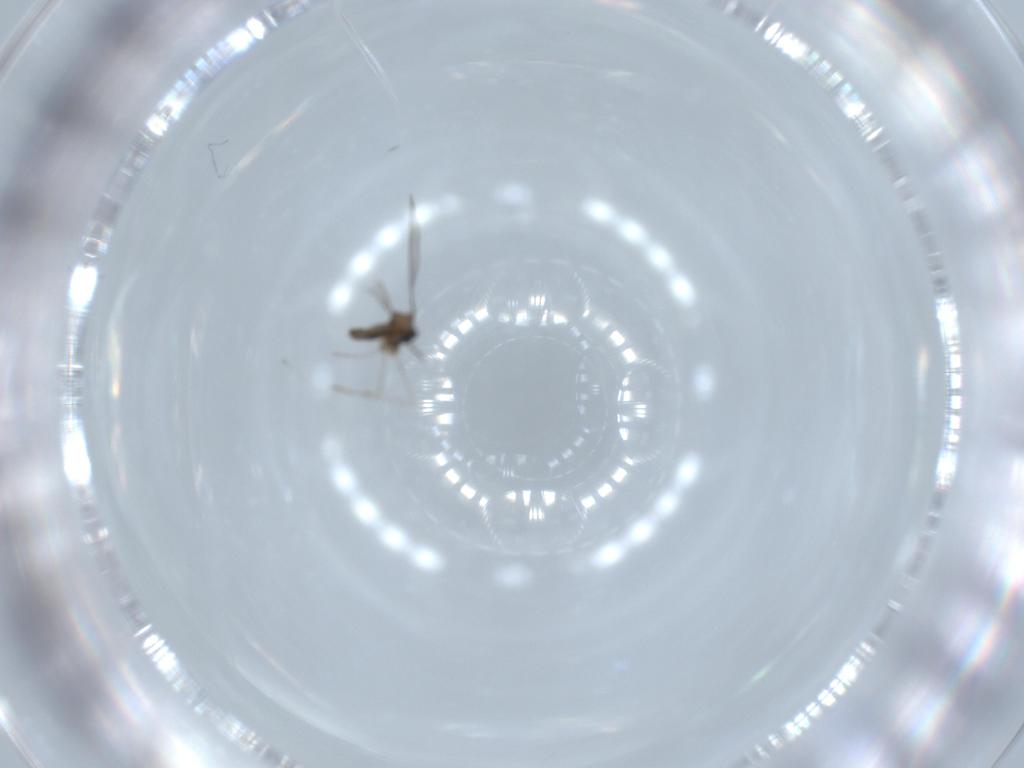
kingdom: Animalia
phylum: Arthropoda
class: Insecta
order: Diptera
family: Cecidomyiidae
